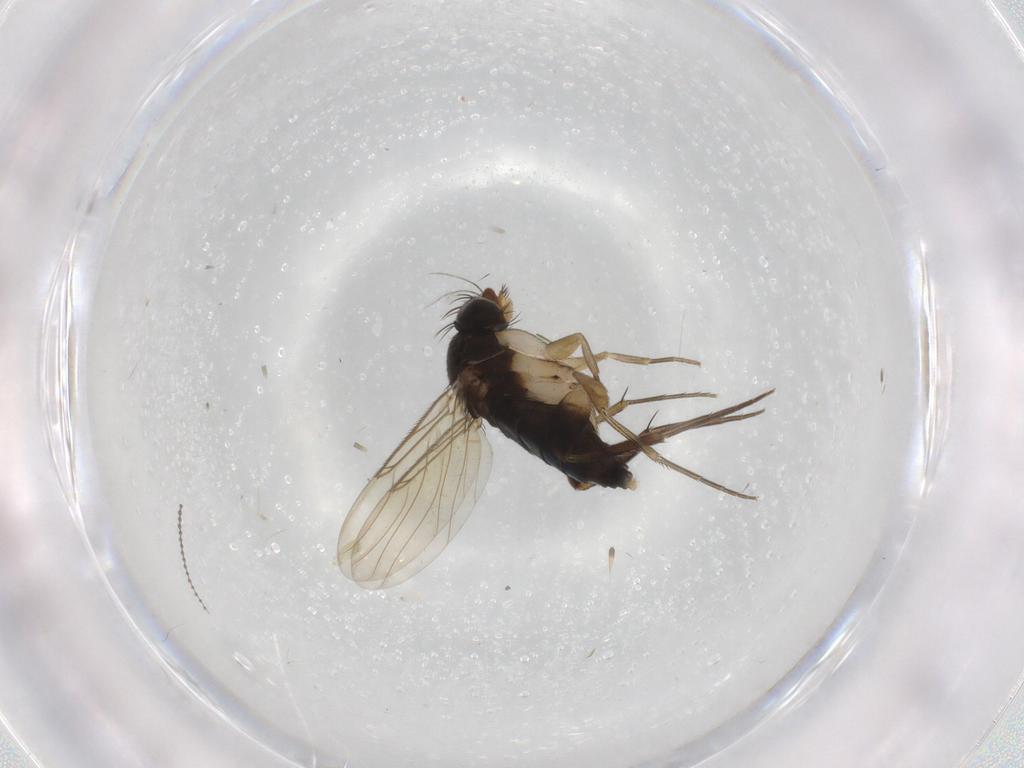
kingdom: Animalia
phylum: Arthropoda
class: Insecta
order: Diptera
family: Phoridae
